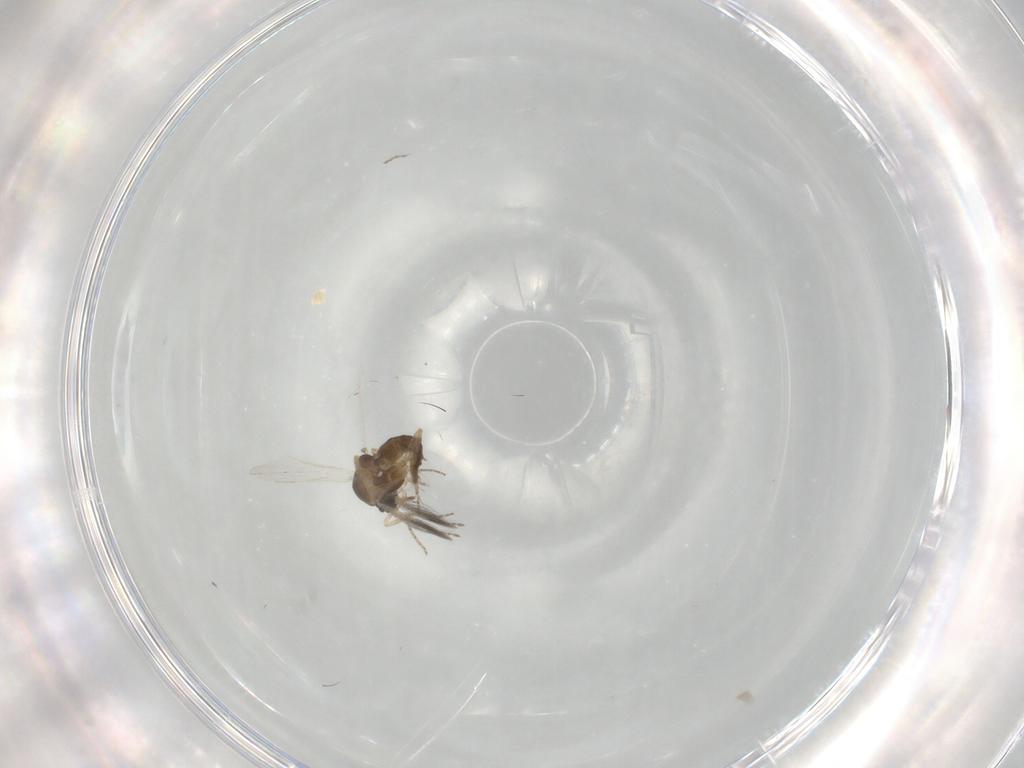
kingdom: Animalia
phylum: Arthropoda
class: Insecta
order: Diptera
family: Ceratopogonidae
